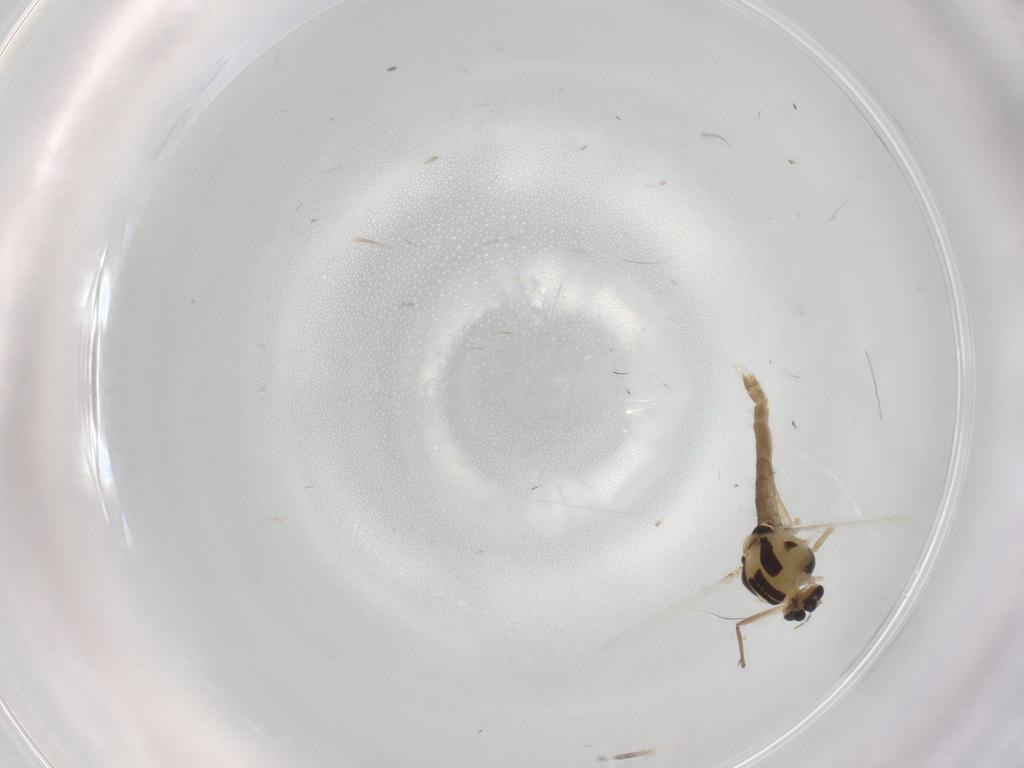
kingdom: Animalia
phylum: Arthropoda
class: Insecta
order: Diptera
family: Chironomidae
